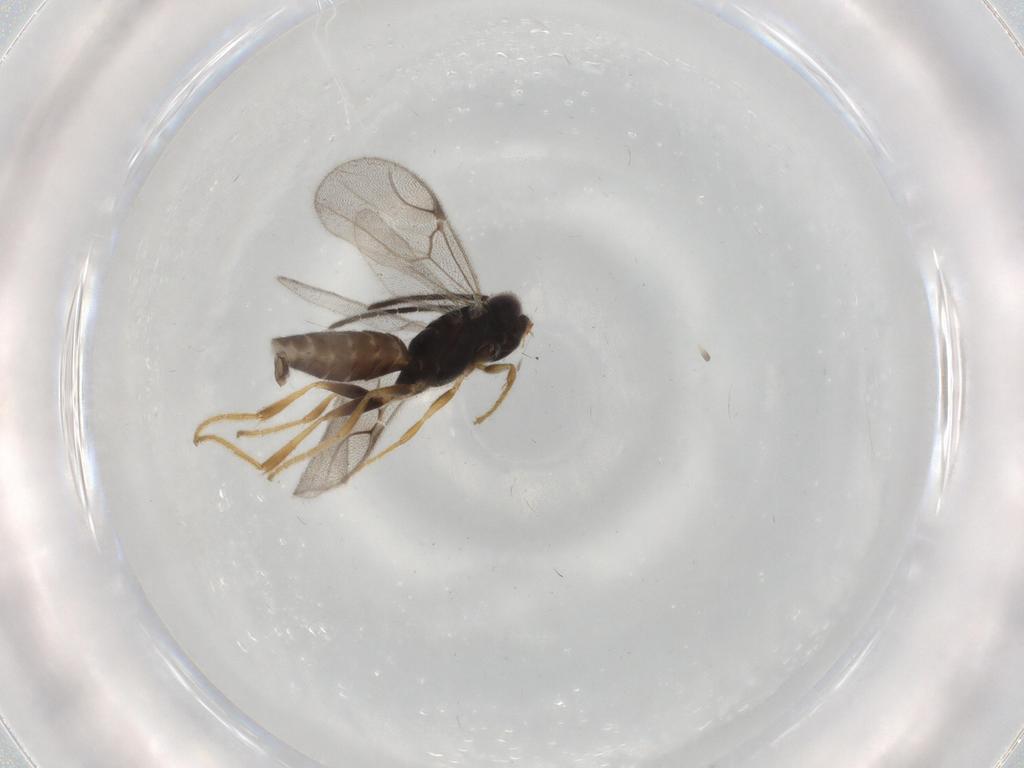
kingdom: Animalia
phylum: Arthropoda
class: Insecta
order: Hymenoptera
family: Dryinidae
